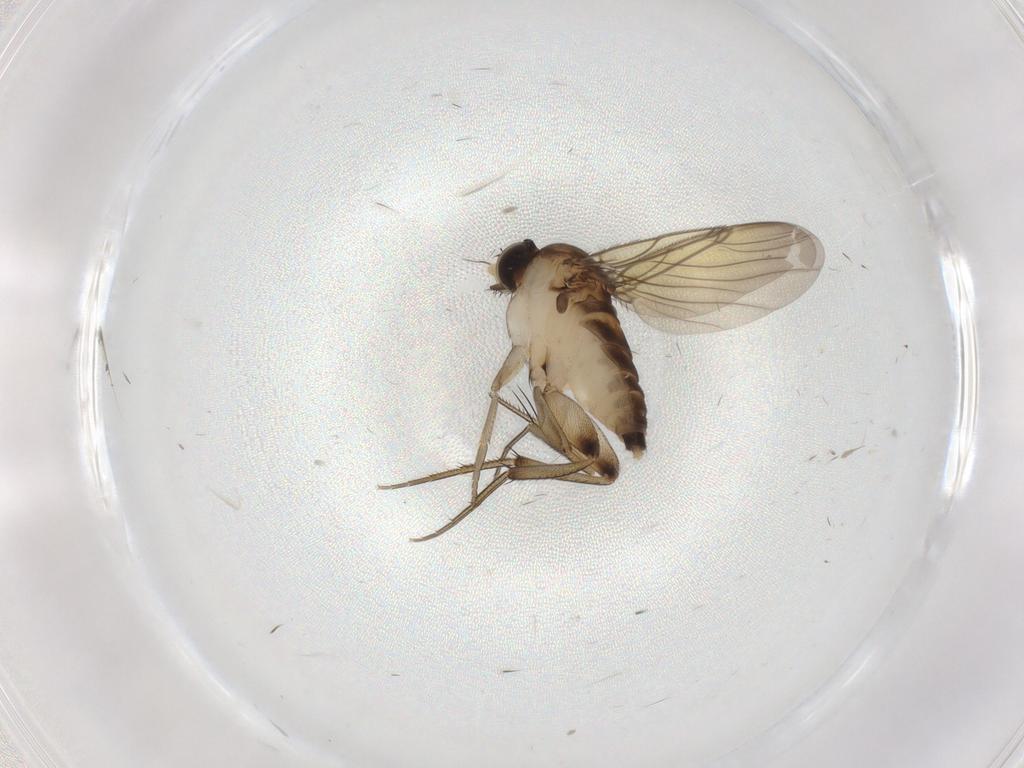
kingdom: Animalia
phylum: Arthropoda
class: Insecta
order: Diptera
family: Phoridae
